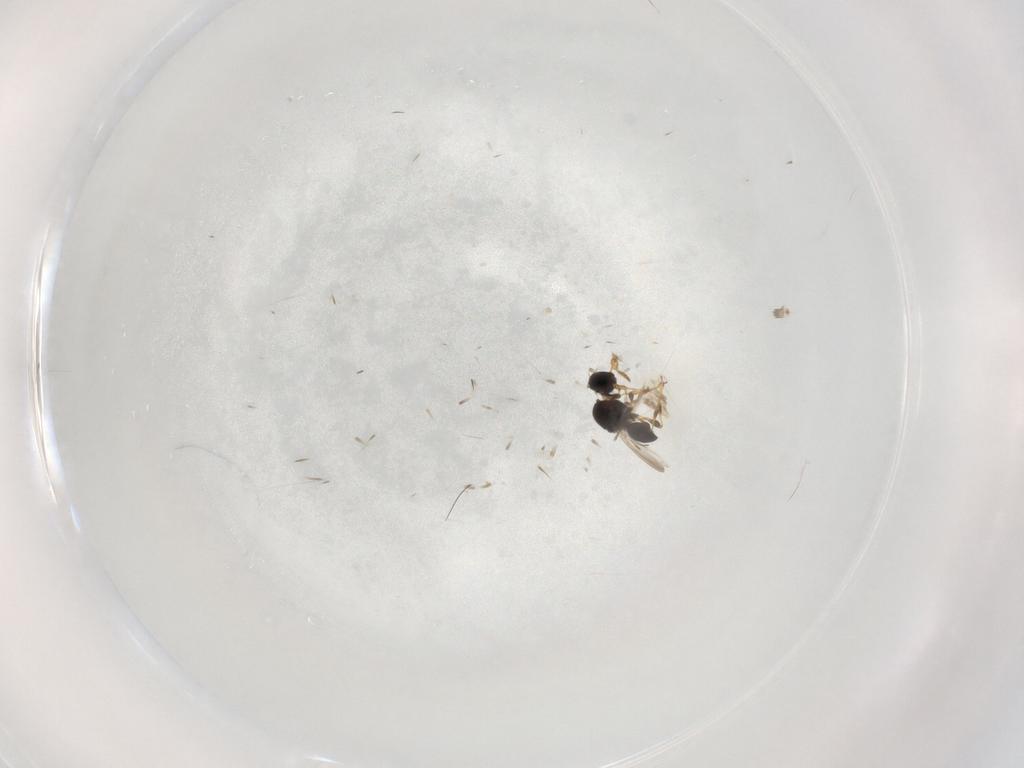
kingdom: Animalia
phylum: Arthropoda
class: Insecta
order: Hymenoptera
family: Platygastridae
